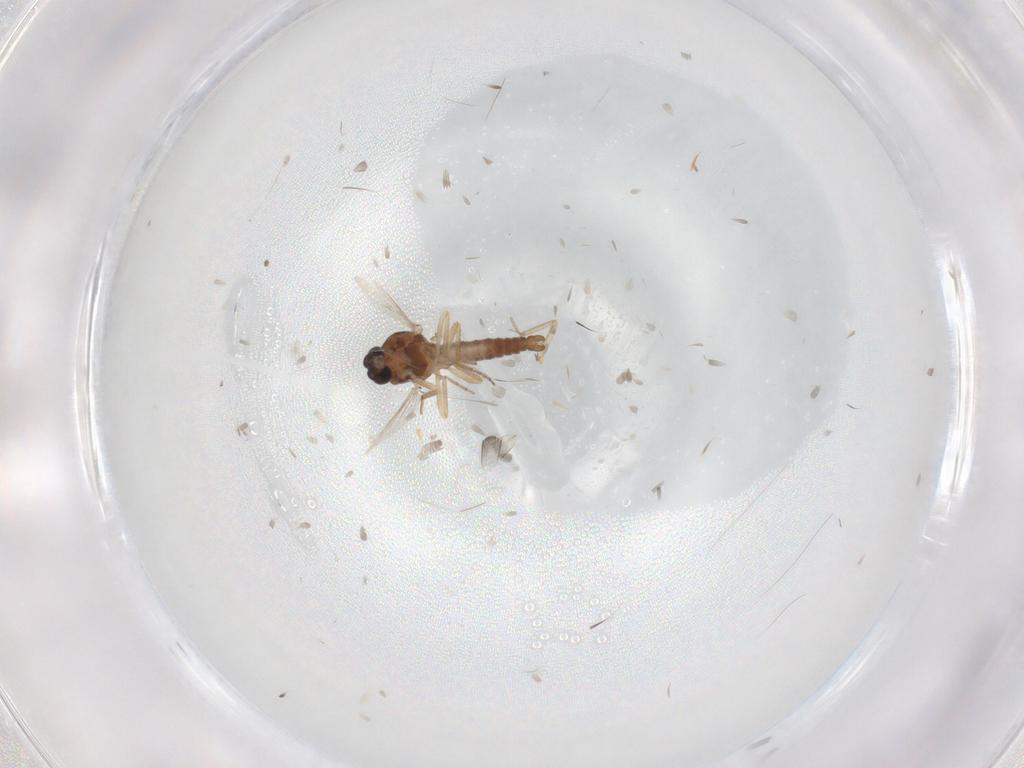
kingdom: Animalia
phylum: Arthropoda
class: Insecta
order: Diptera
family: Ceratopogonidae
